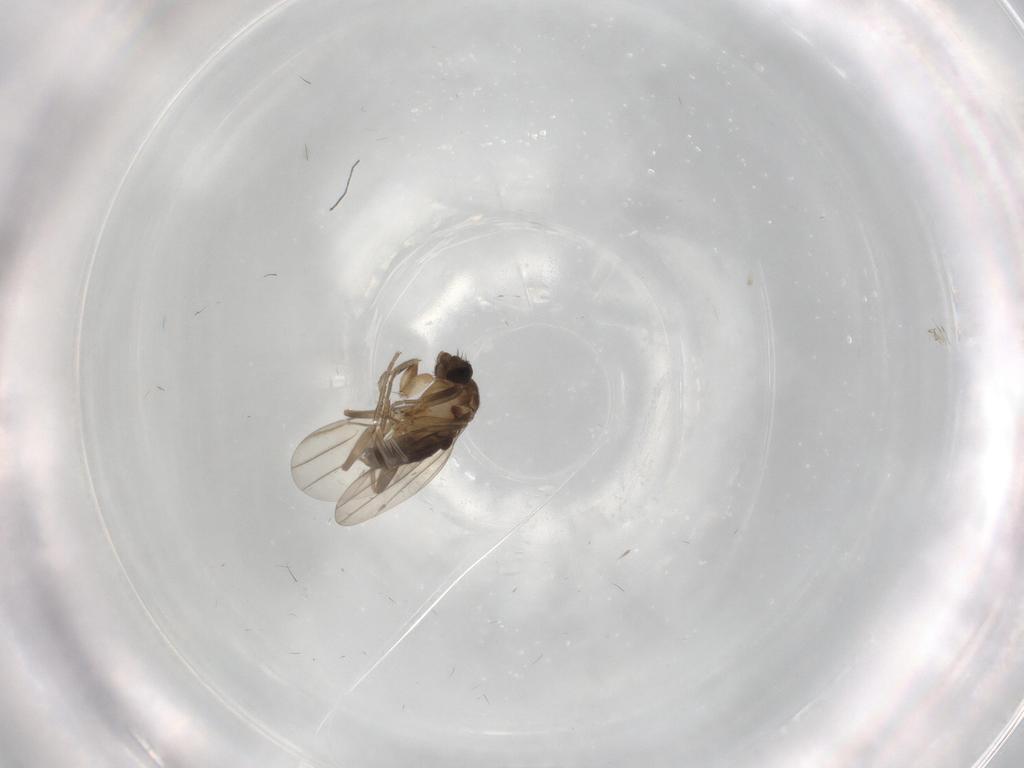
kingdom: Animalia
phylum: Arthropoda
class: Insecta
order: Diptera
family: Phoridae
